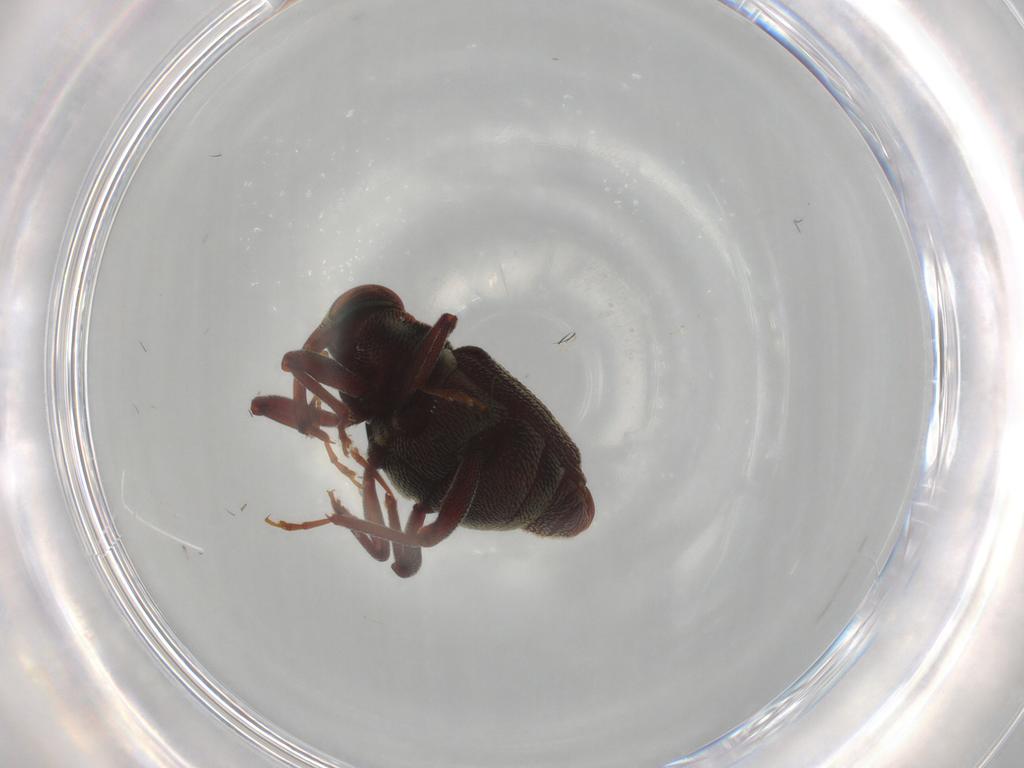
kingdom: Animalia
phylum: Arthropoda
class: Insecta
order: Coleoptera
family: Curculionidae
